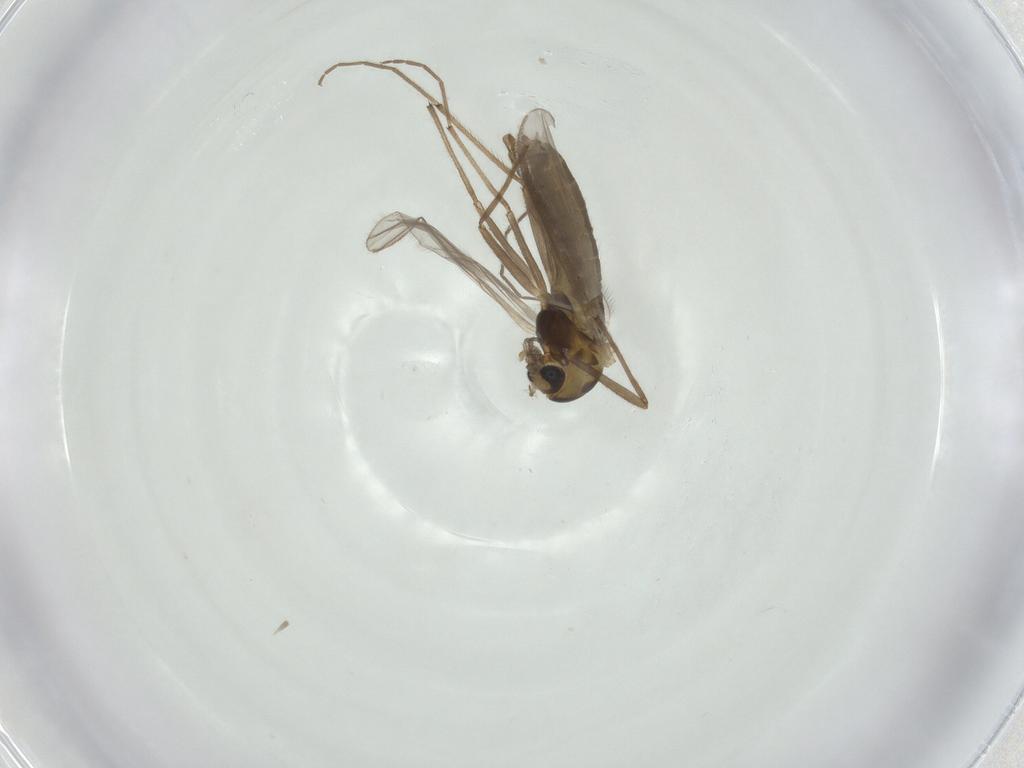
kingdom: Animalia
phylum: Arthropoda
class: Insecta
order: Diptera
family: Chironomidae
